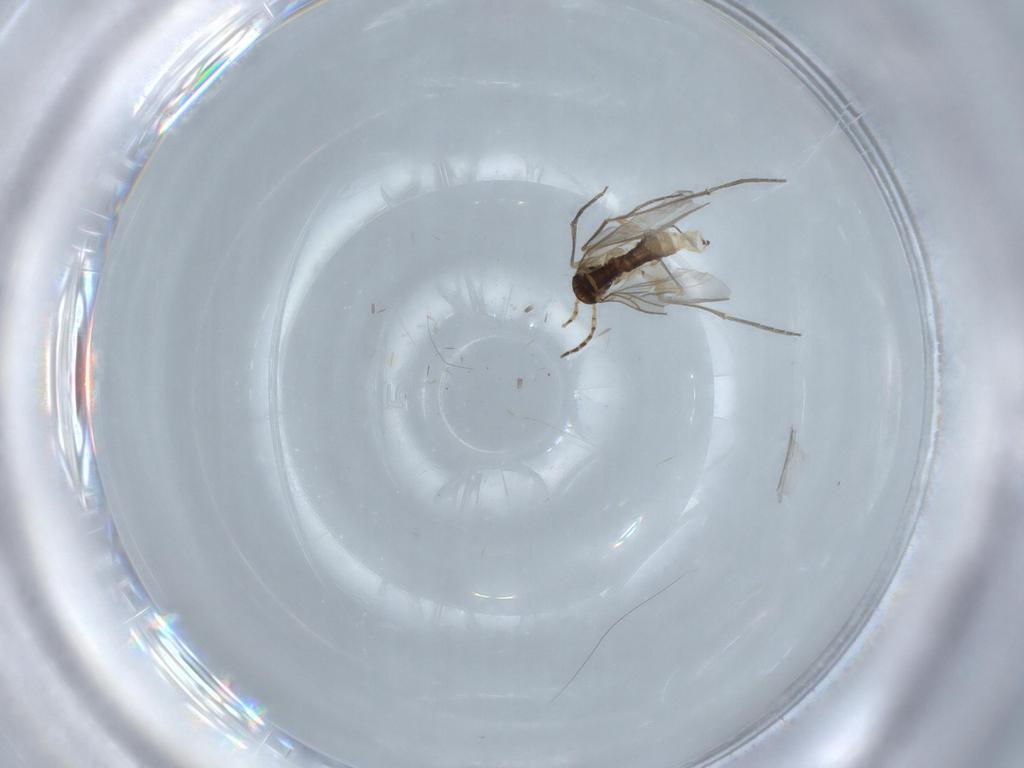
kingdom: Animalia
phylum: Arthropoda
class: Insecta
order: Diptera
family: Sciaridae
